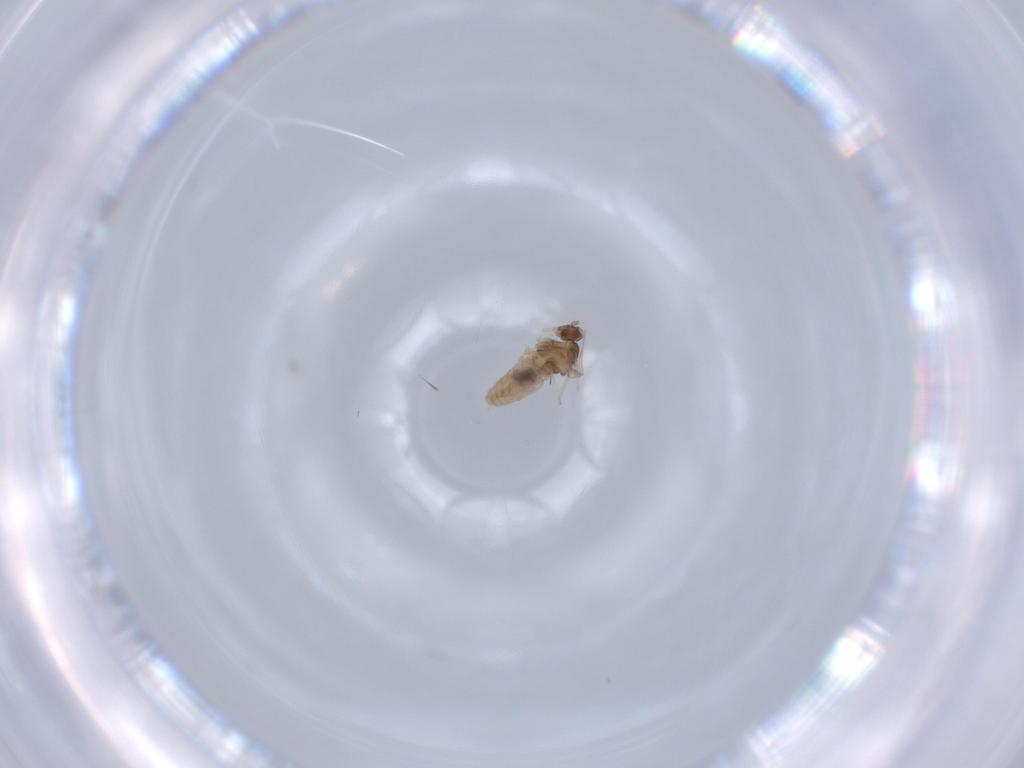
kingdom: Animalia
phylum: Arthropoda
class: Insecta
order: Diptera
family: Cecidomyiidae
